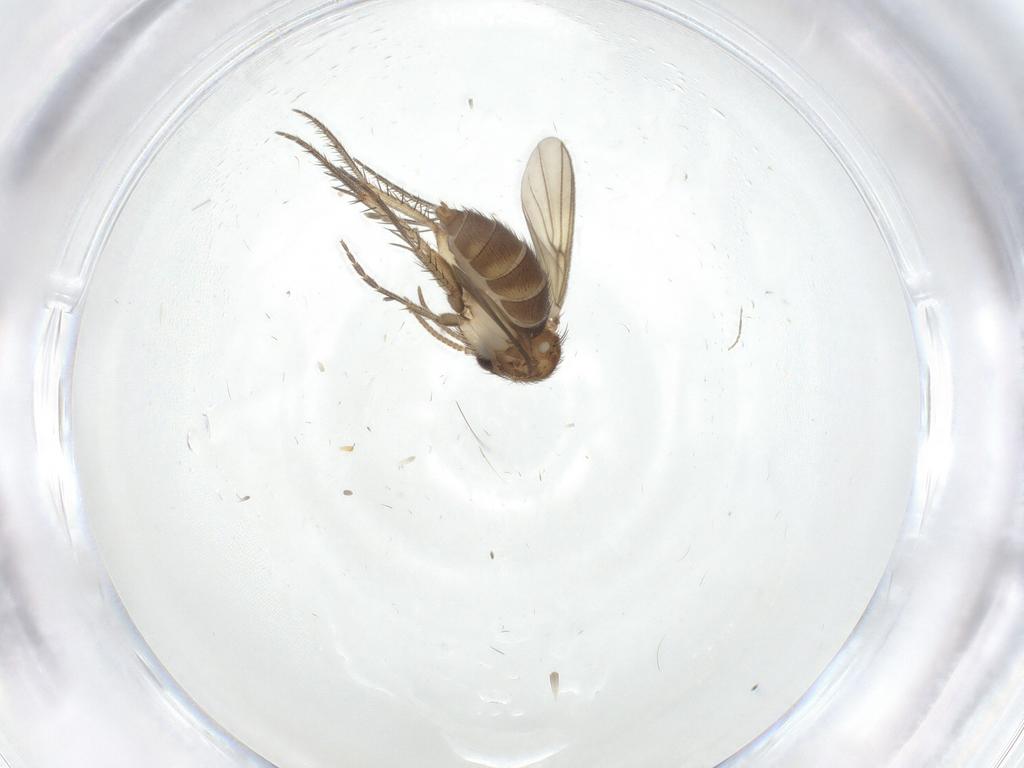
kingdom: Animalia
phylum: Arthropoda
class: Insecta
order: Diptera
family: Mycetophilidae
